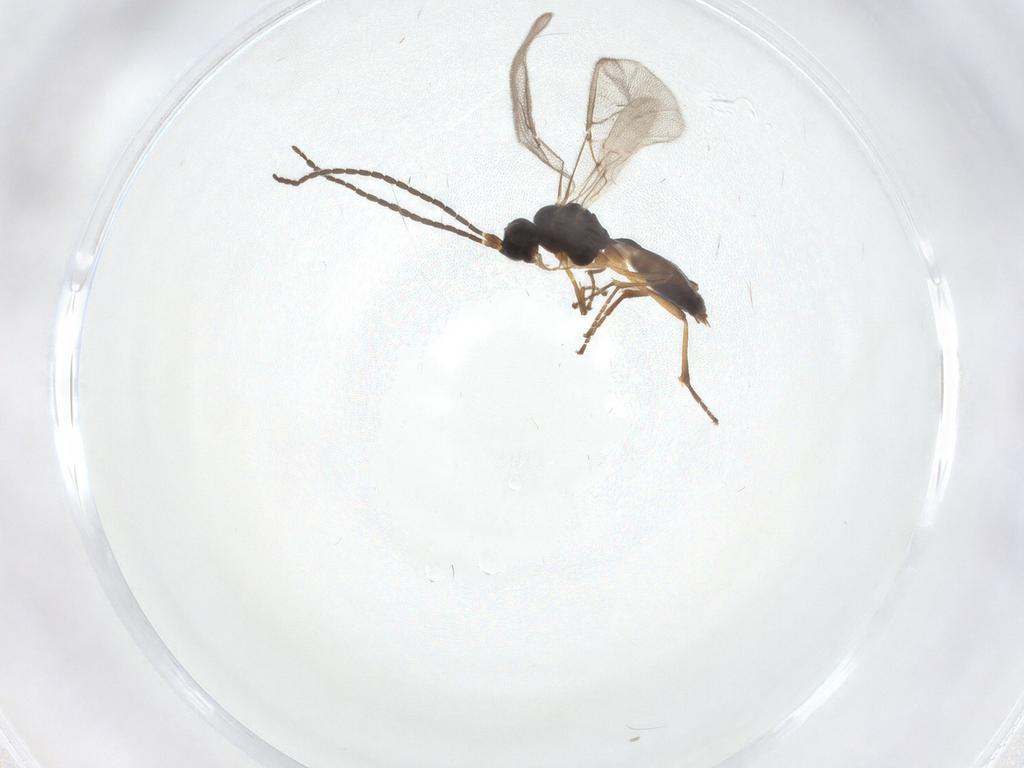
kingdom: Animalia
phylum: Arthropoda
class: Insecta
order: Hymenoptera
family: Braconidae
